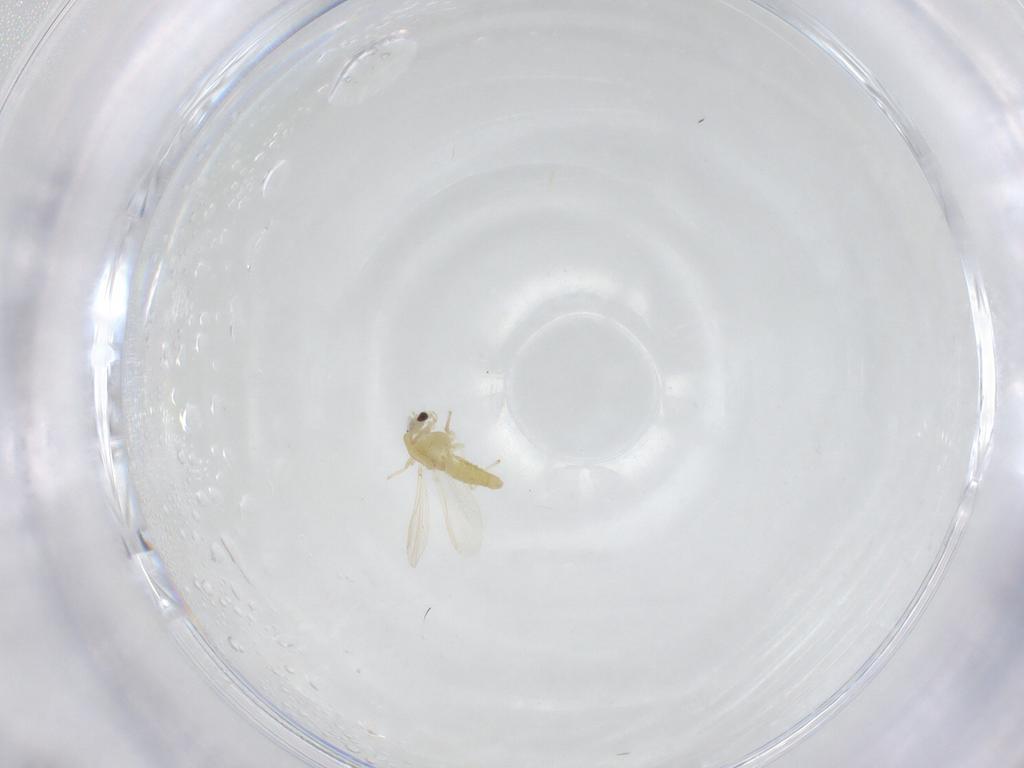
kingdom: Animalia
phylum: Arthropoda
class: Insecta
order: Diptera
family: Chironomidae
